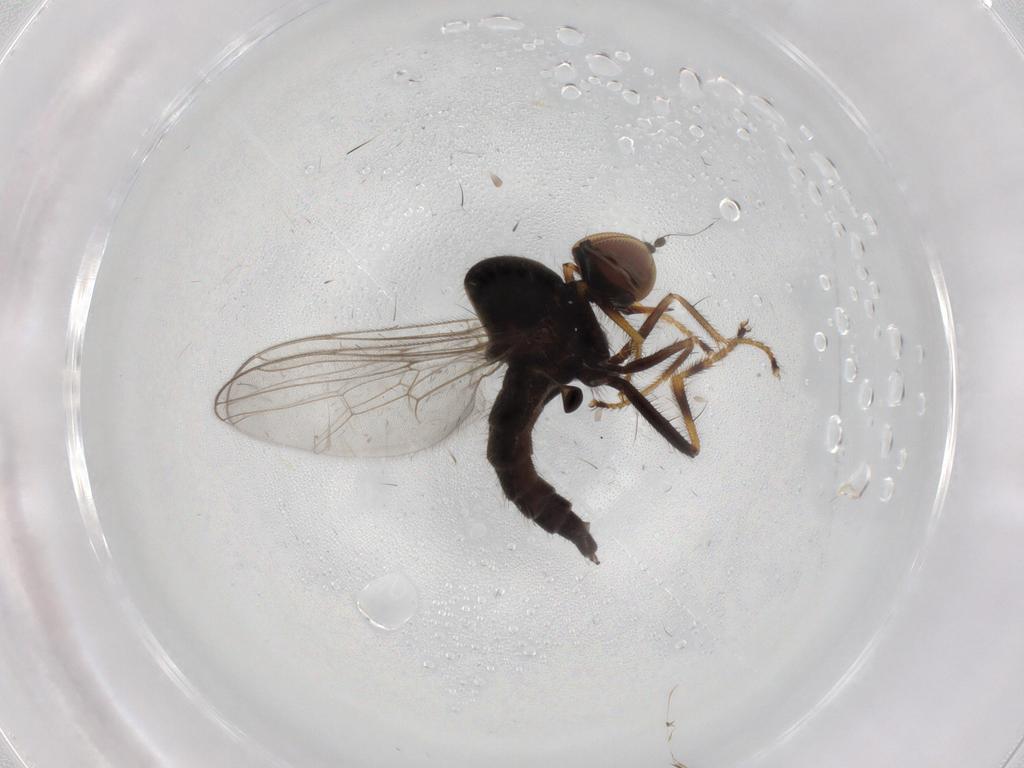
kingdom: Animalia
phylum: Arthropoda
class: Insecta
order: Diptera
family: Hybotidae
